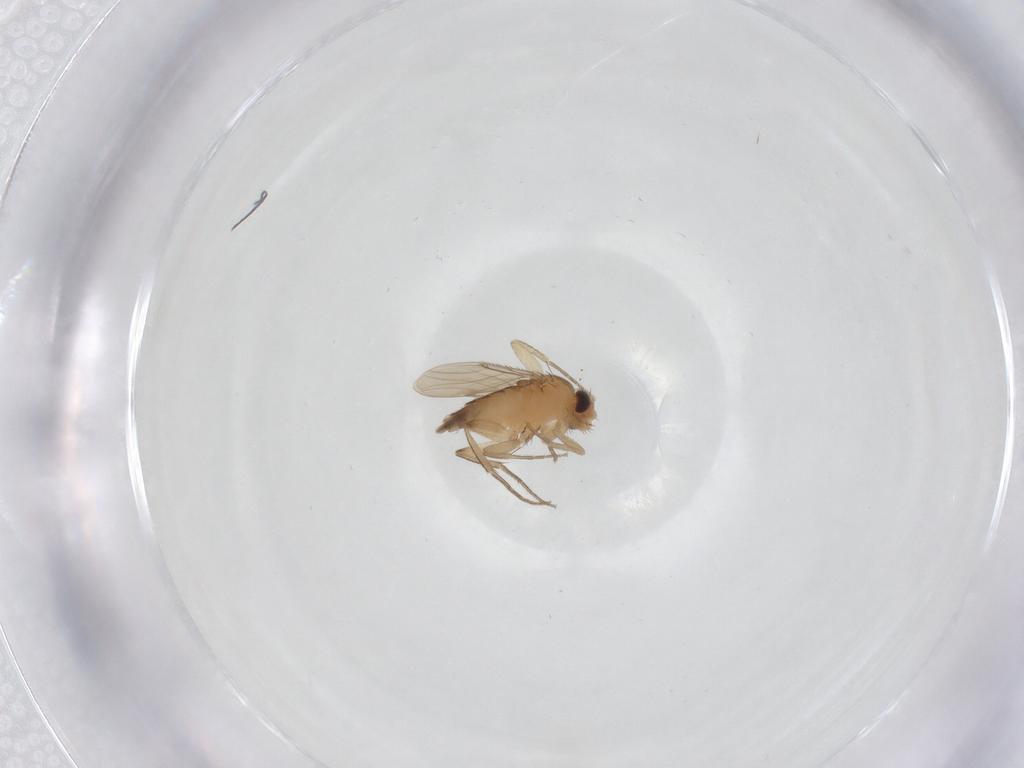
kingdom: Animalia
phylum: Arthropoda
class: Insecta
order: Diptera
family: Phoridae
